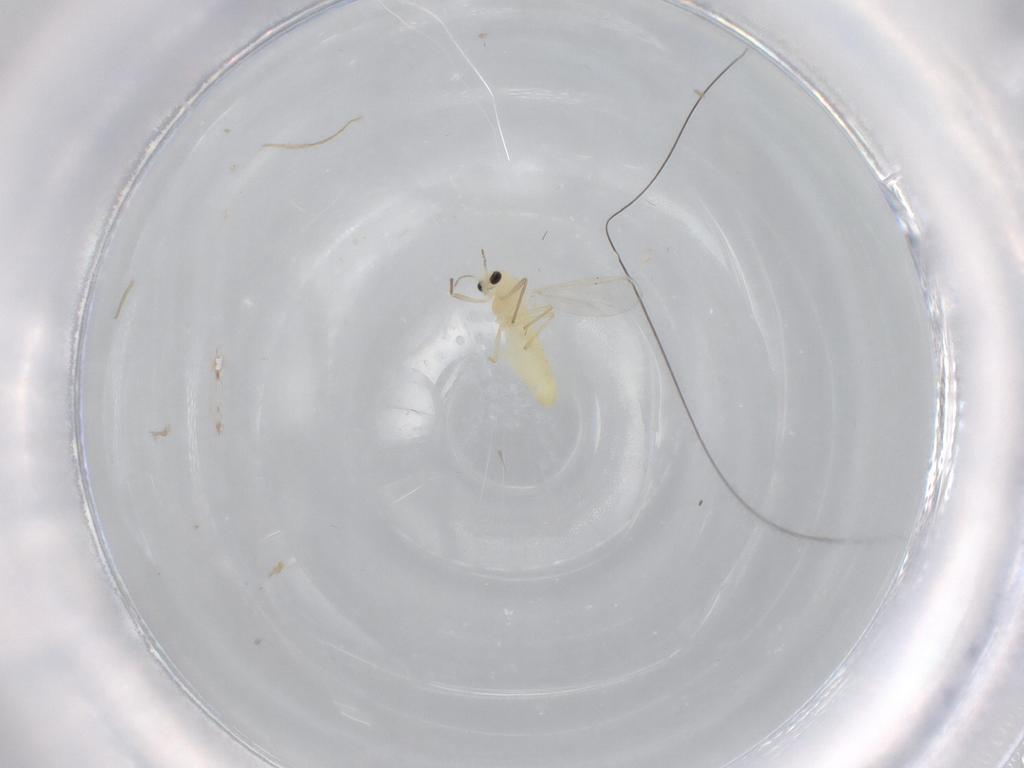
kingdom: Animalia
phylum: Arthropoda
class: Insecta
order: Diptera
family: Chironomidae
